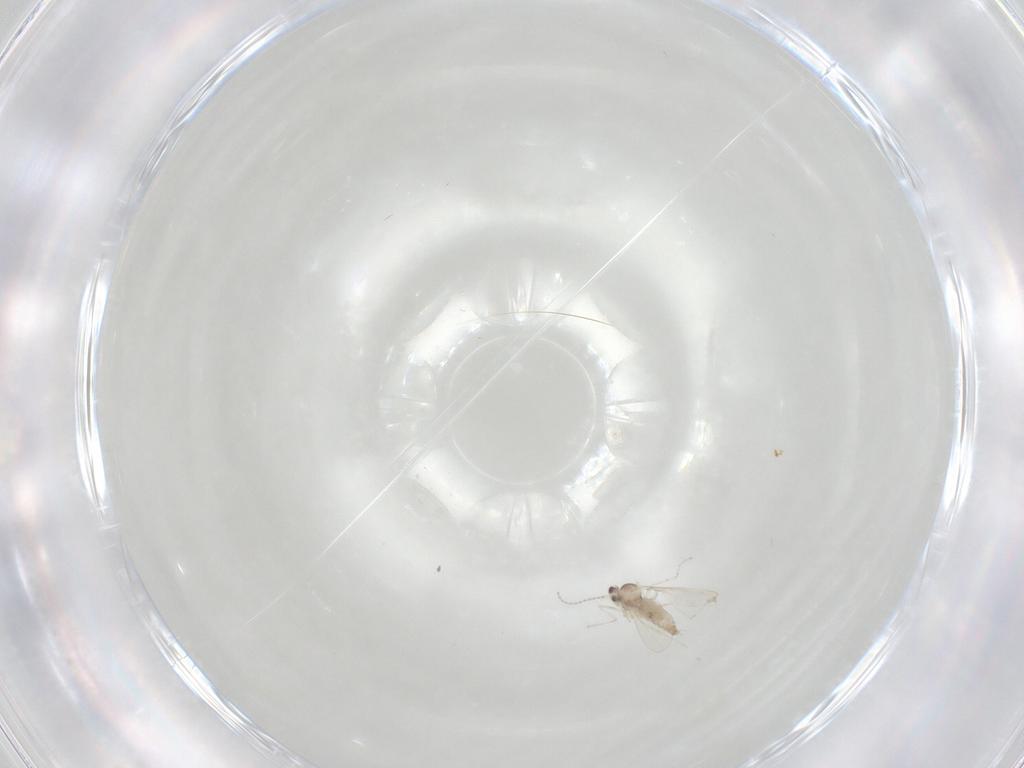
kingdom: Animalia
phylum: Arthropoda
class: Insecta
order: Diptera
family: Cecidomyiidae
